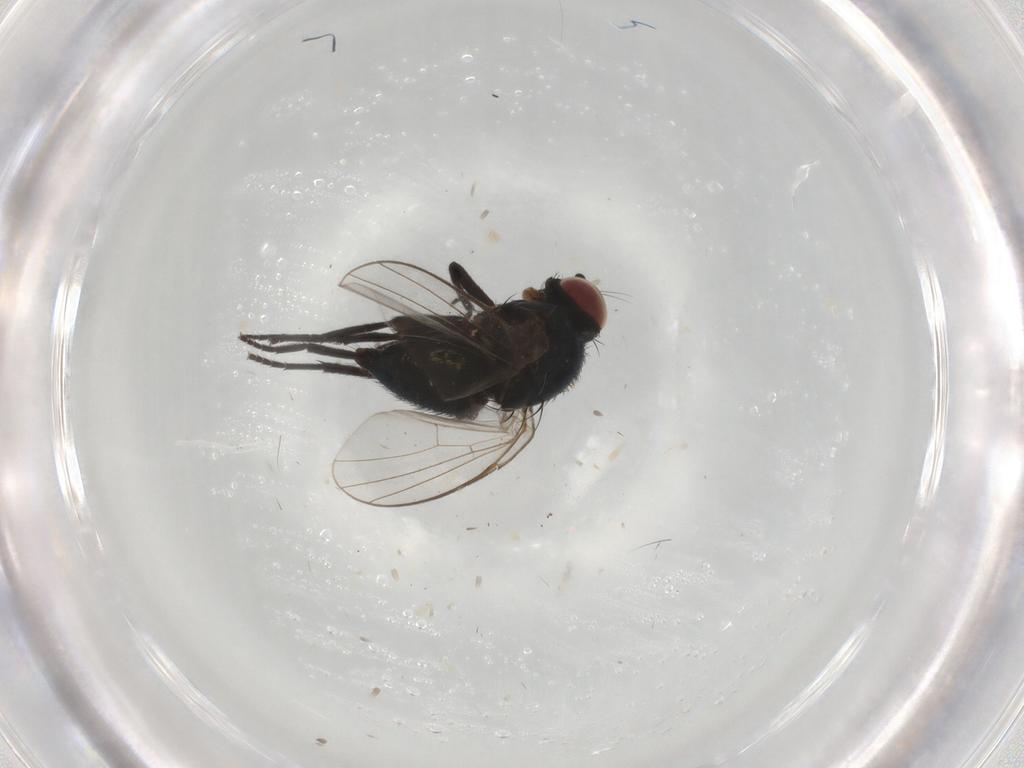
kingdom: Animalia
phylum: Arthropoda
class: Insecta
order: Diptera
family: Agromyzidae
